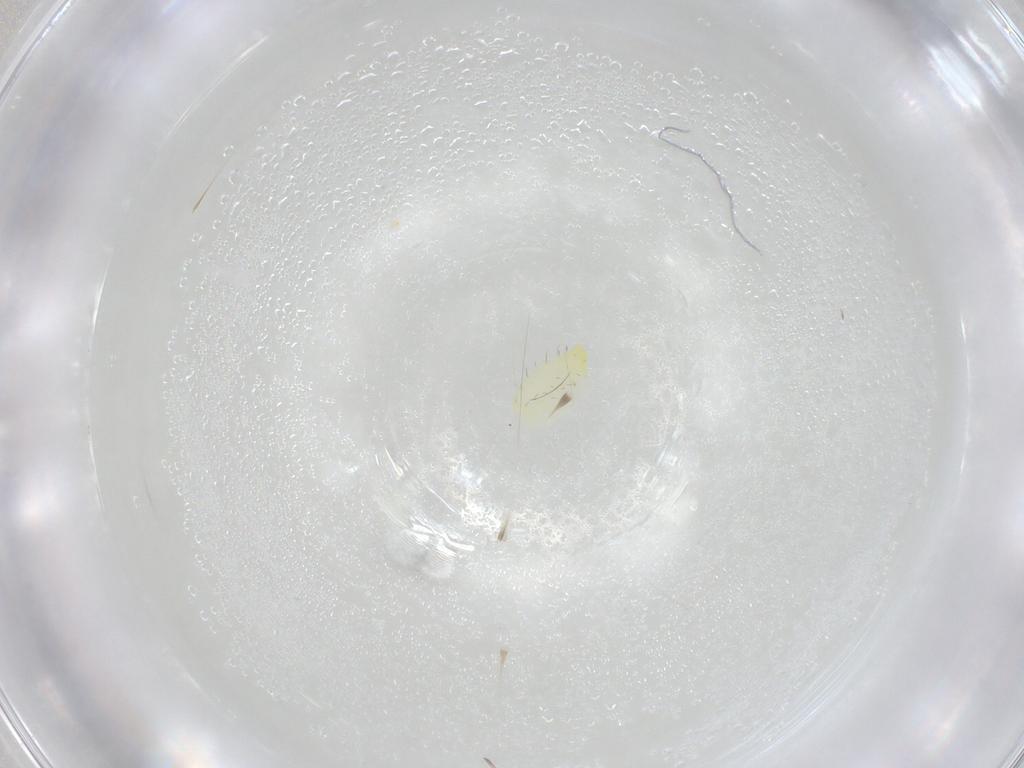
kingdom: Animalia
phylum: Arthropoda
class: Insecta
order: Hemiptera
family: Cicadellidae
